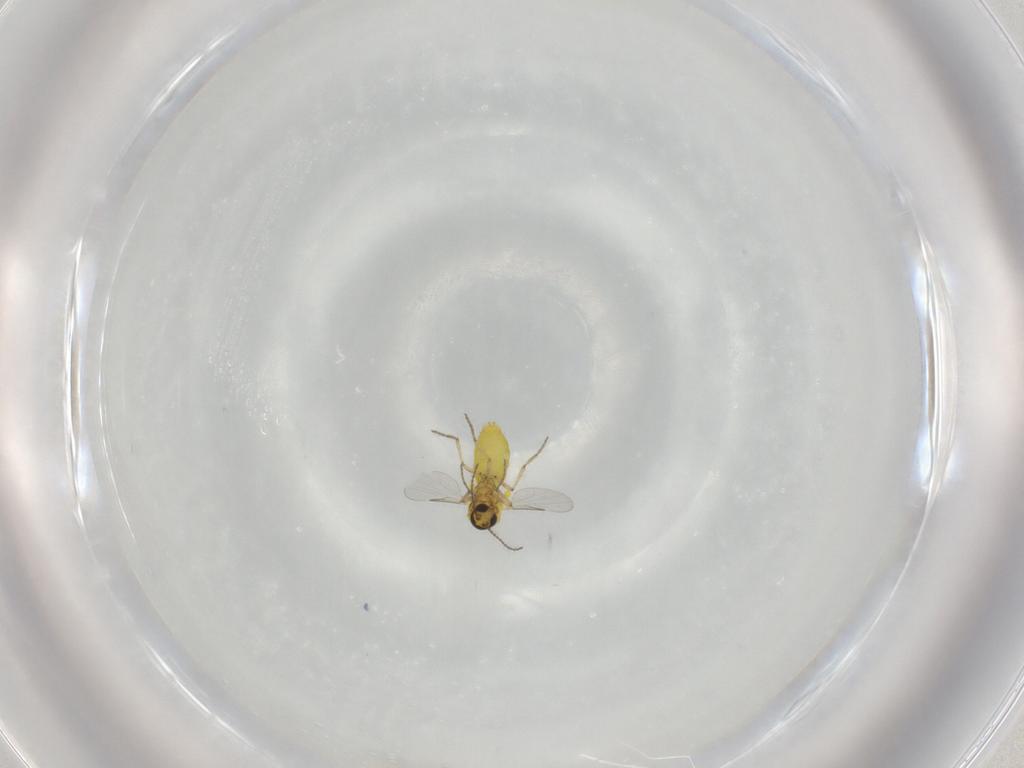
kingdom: Animalia
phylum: Arthropoda
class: Insecta
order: Diptera
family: Ceratopogonidae
